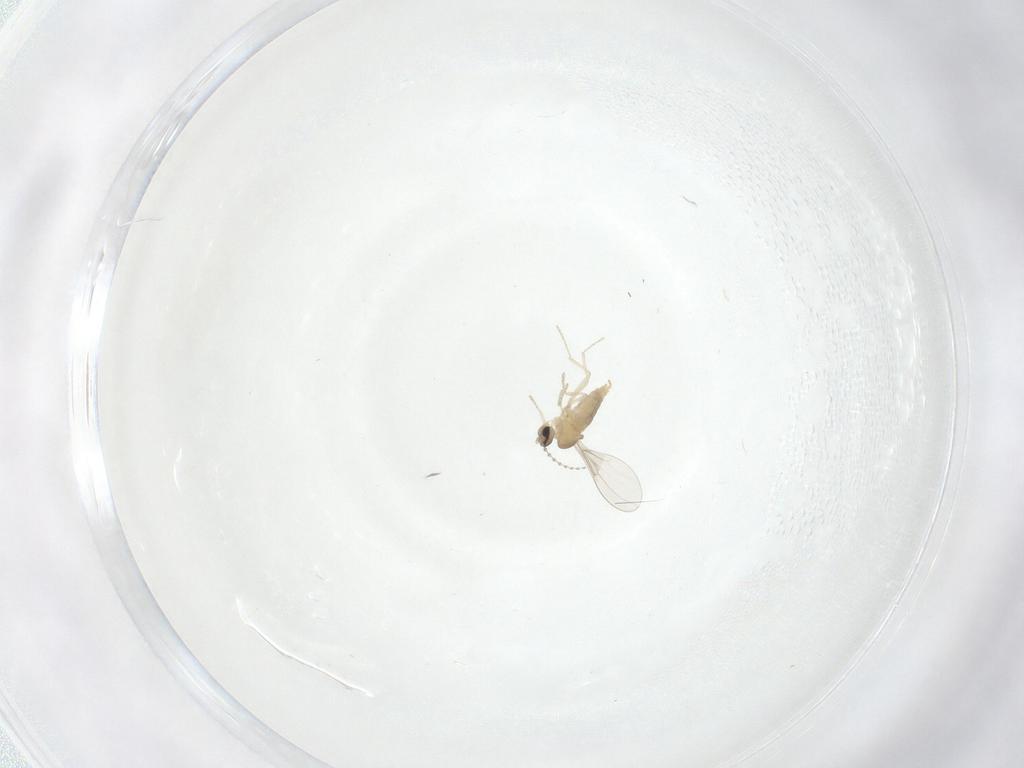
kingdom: Animalia
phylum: Arthropoda
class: Insecta
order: Diptera
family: Cecidomyiidae
